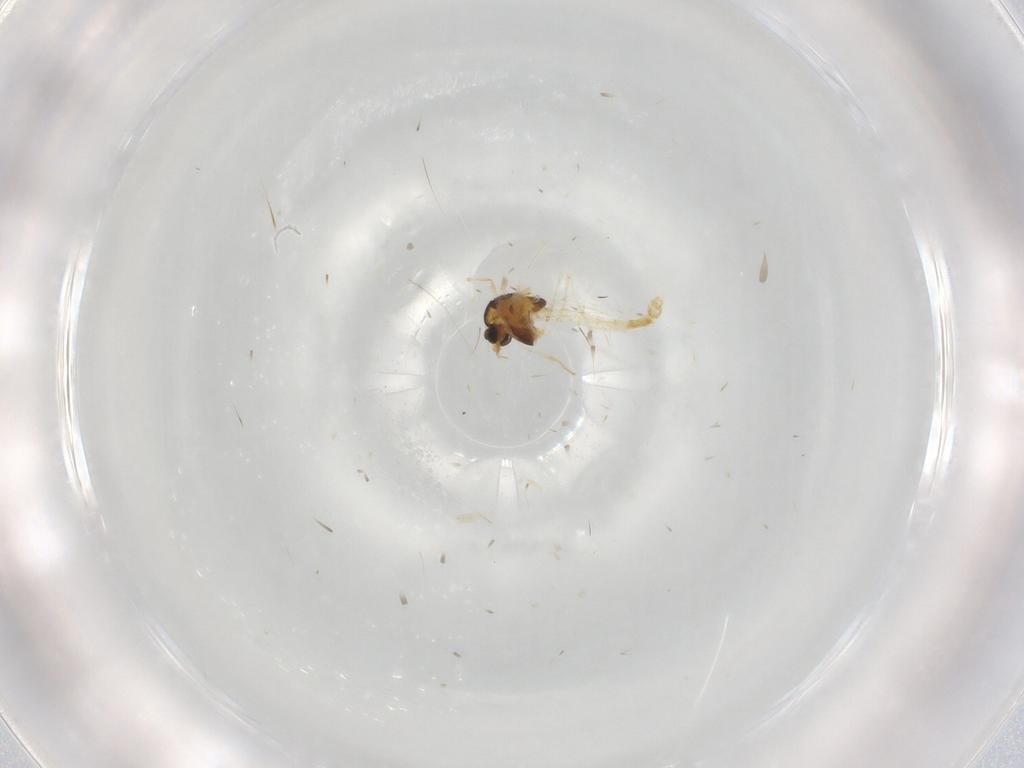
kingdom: Animalia
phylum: Arthropoda
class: Insecta
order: Diptera
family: Chironomidae
